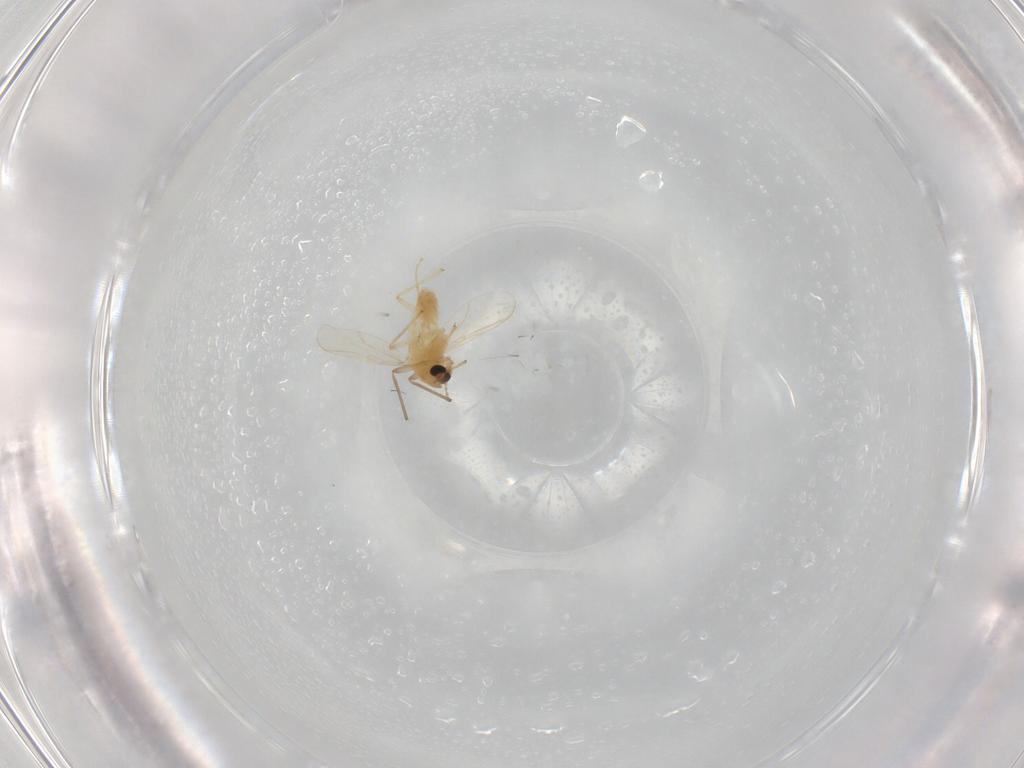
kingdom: Animalia
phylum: Arthropoda
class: Insecta
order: Diptera
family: Chironomidae
